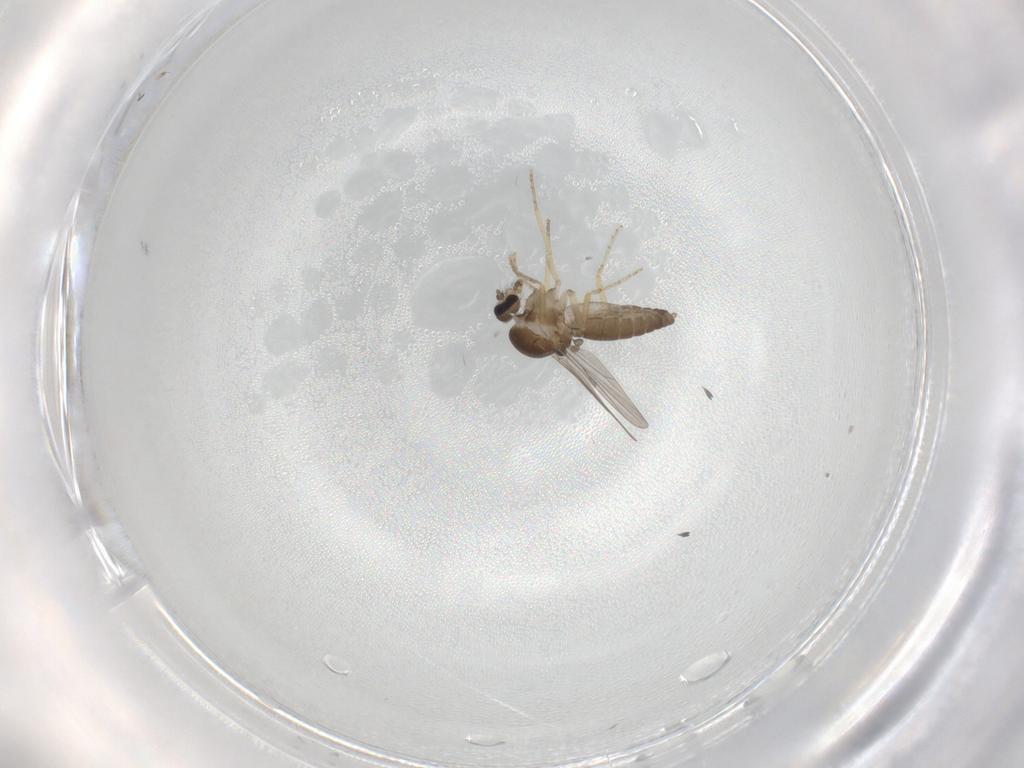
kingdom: Animalia
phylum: Arthropoda
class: Insecta
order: Diptera
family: Ceratopogonidae
